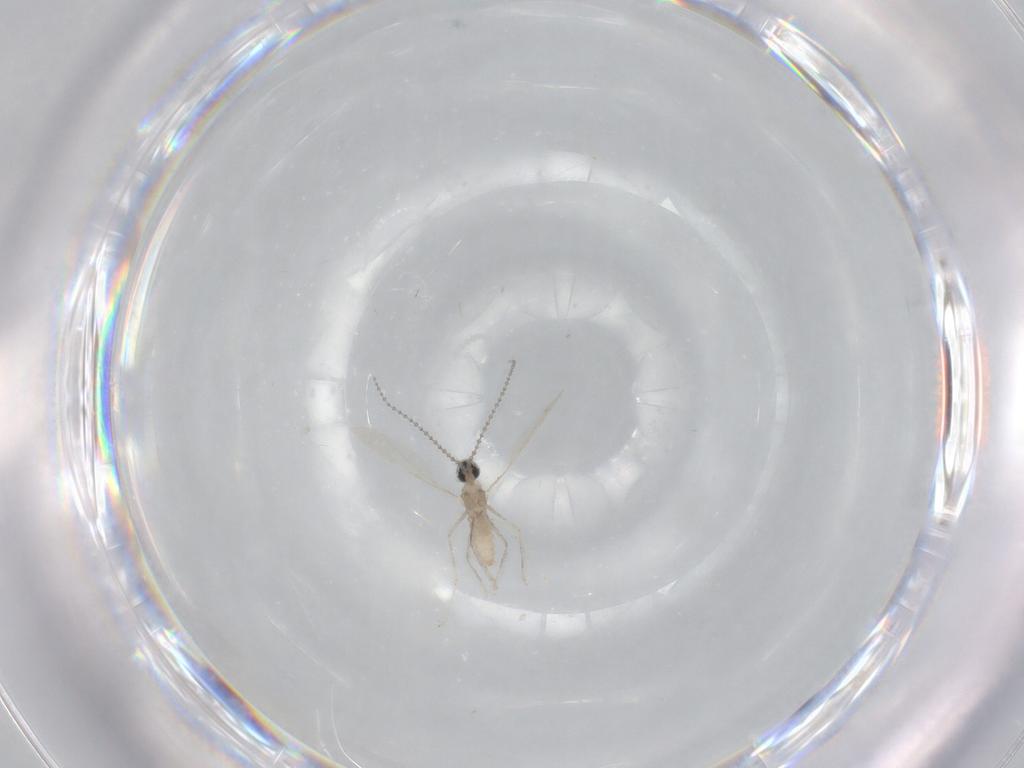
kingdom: Animalia
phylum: Arthropoda
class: Insecta
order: Diptera
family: Cecidomyiidae
